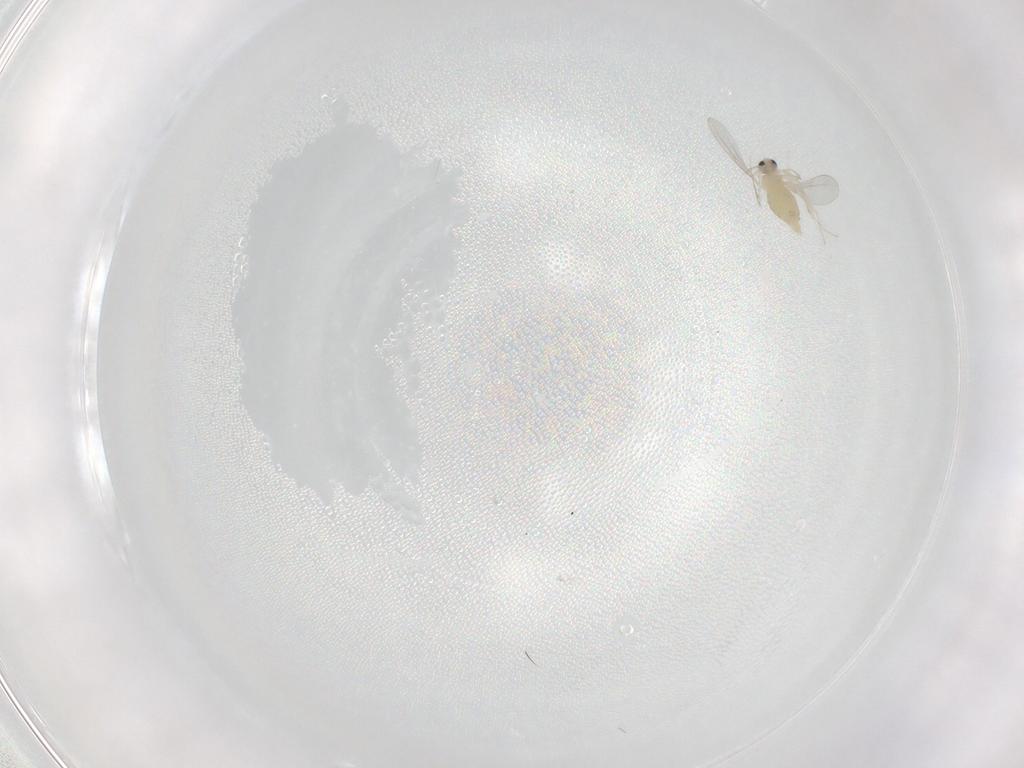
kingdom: Animalia
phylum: Arthropoda
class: Insecta
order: Diptera
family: Cecidomyiidae
